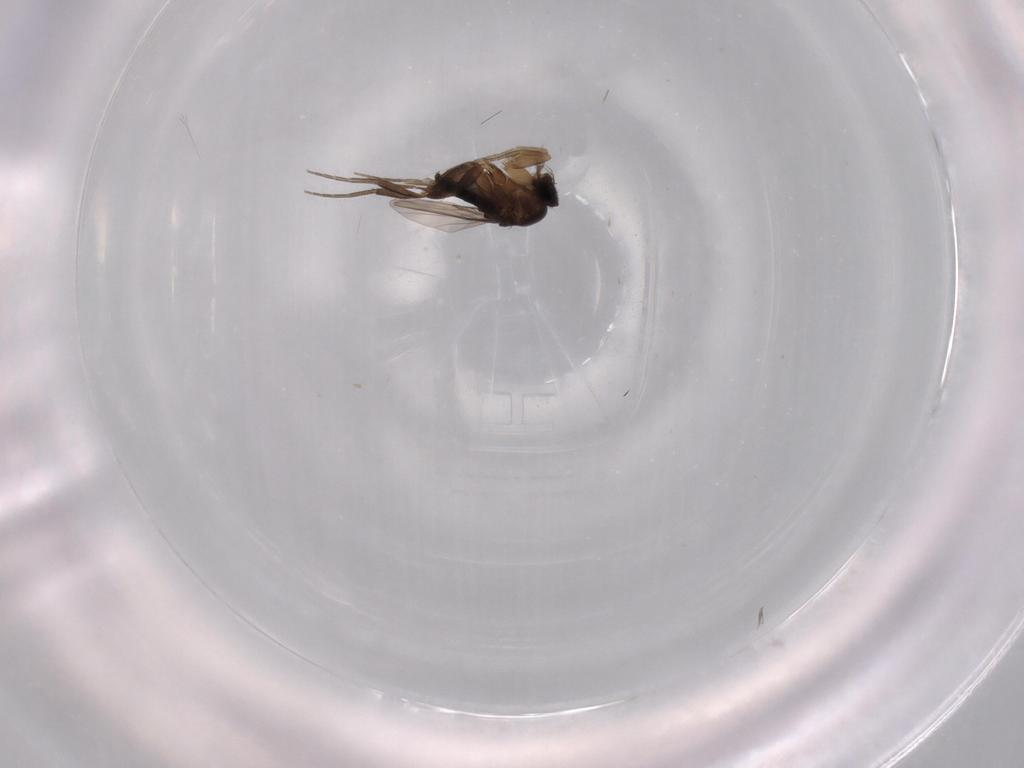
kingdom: Animalia
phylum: Arthropoda
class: Insecta
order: Diptera
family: Phoridae
